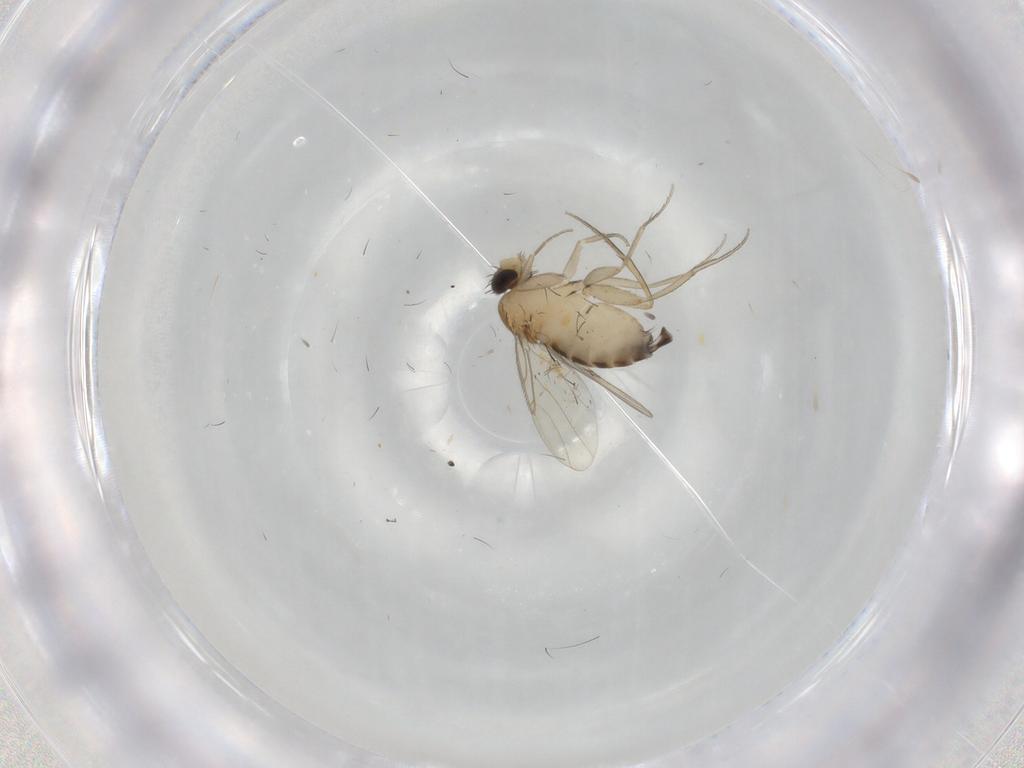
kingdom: Animalia
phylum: Arthropoda
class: Insecta
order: Diptera
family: Phoridae
